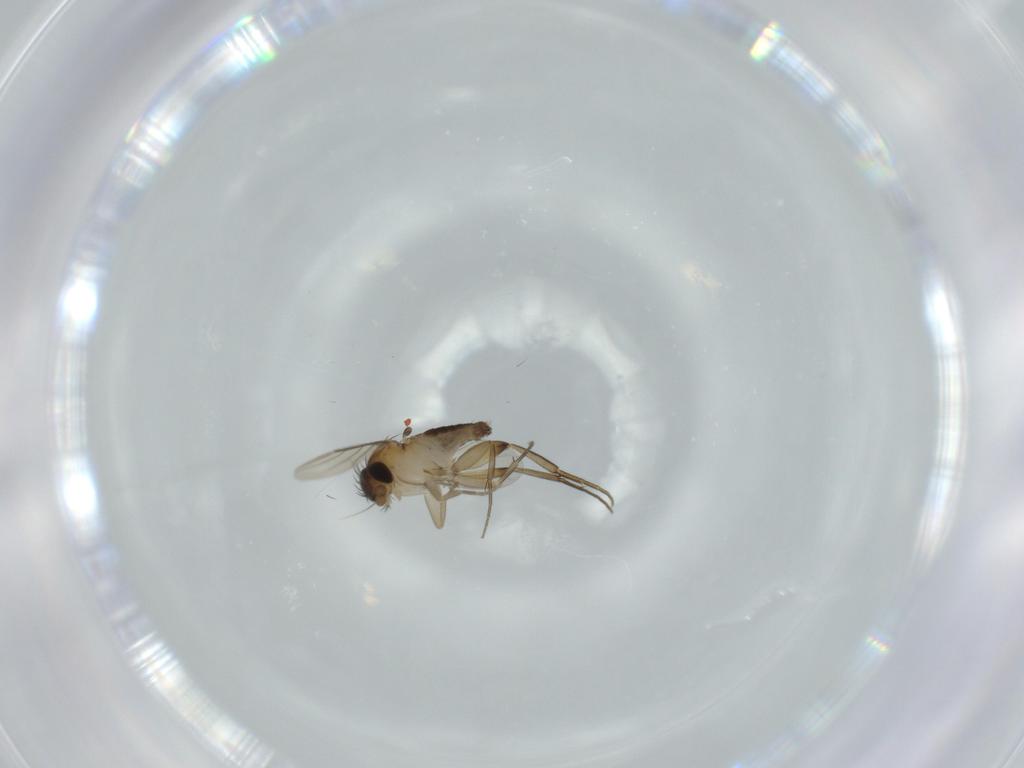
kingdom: Animalia
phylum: Arthropoda
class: Insecta
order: Diptera
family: Phoridae
